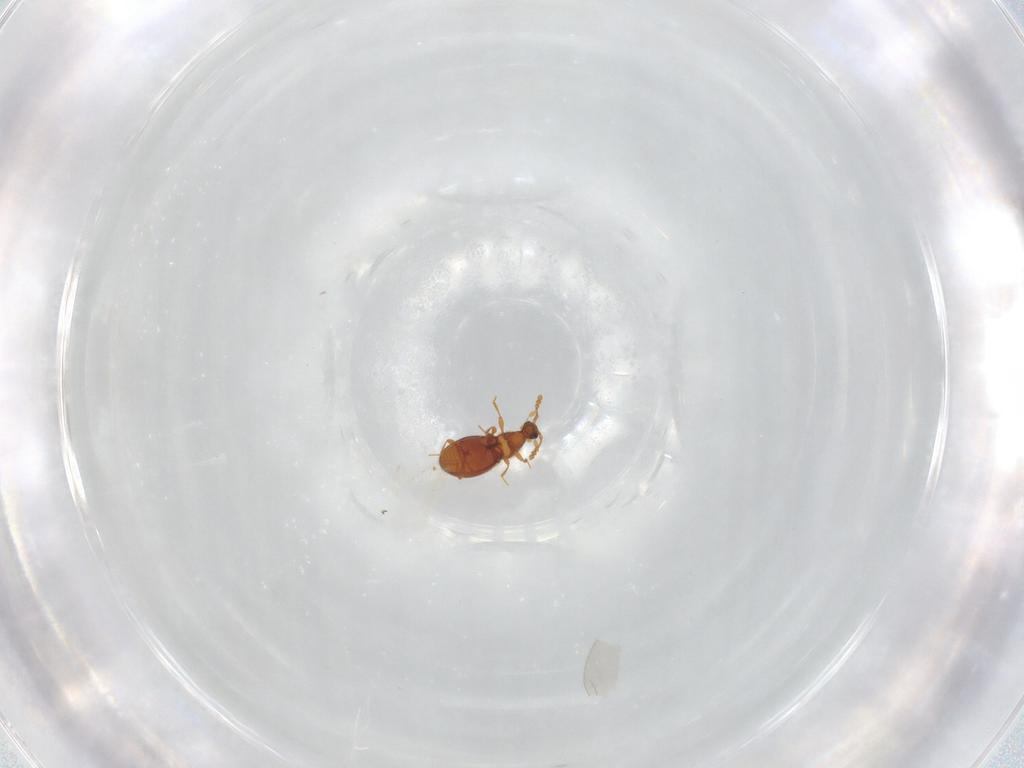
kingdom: Animalia
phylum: Arthropoda
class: Insecta
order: Coleoptera
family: Staphylinidae
